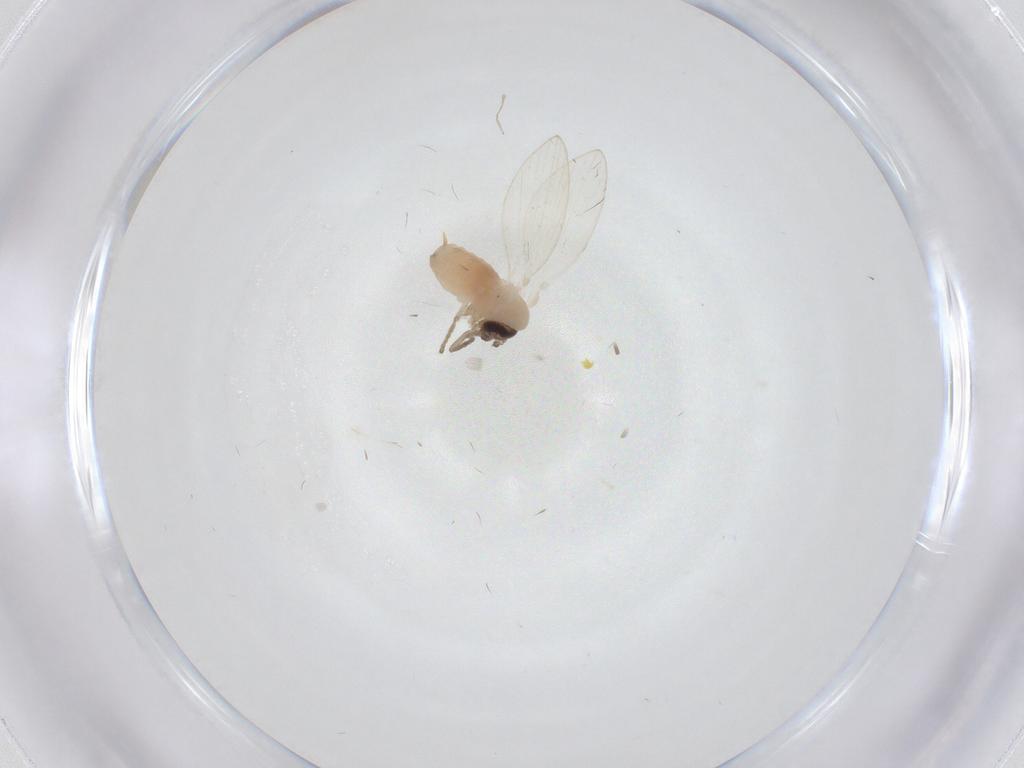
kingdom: Animalia
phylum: Arthropoda
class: Insecta
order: Diptera
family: Psychodidae
